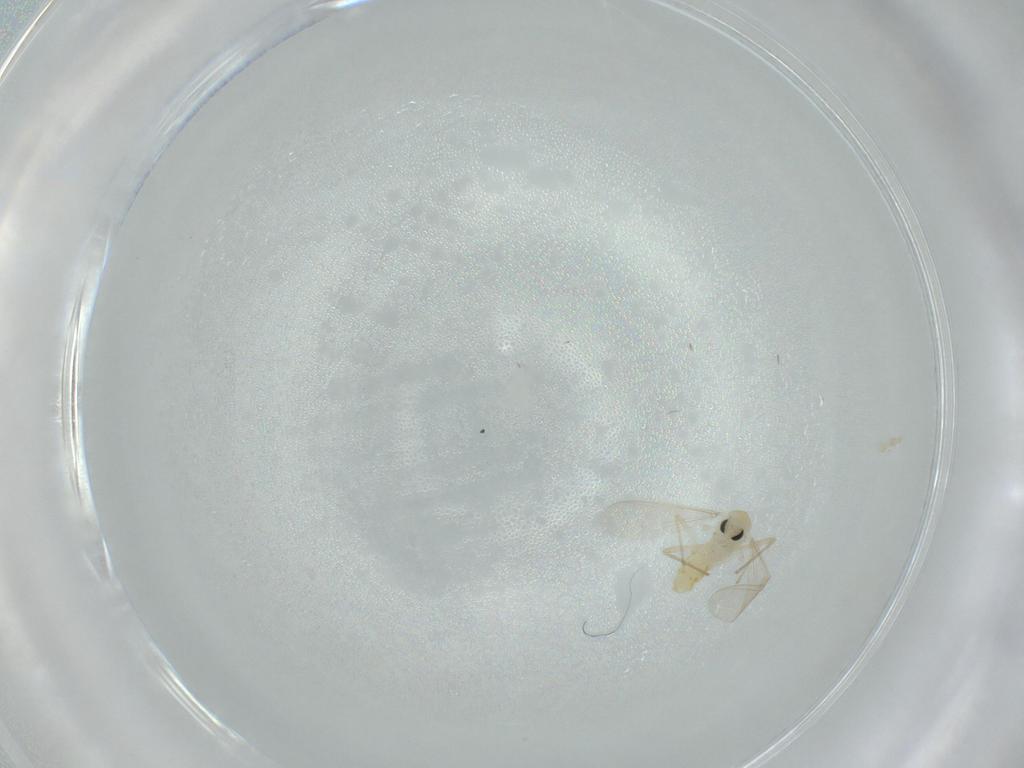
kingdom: Animalia
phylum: Arthropoda
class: Insecta
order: Diptera
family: Chironomidae
